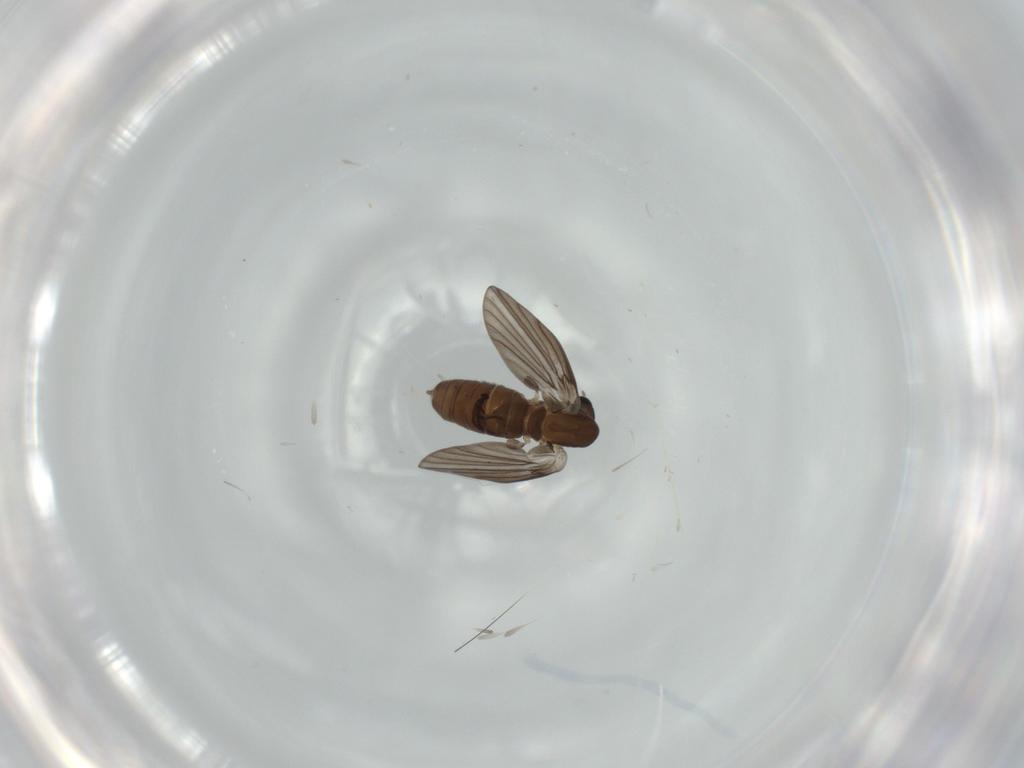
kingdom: Animalia
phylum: Arthropoda
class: Insecta
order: Diptera
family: Psychodidae
